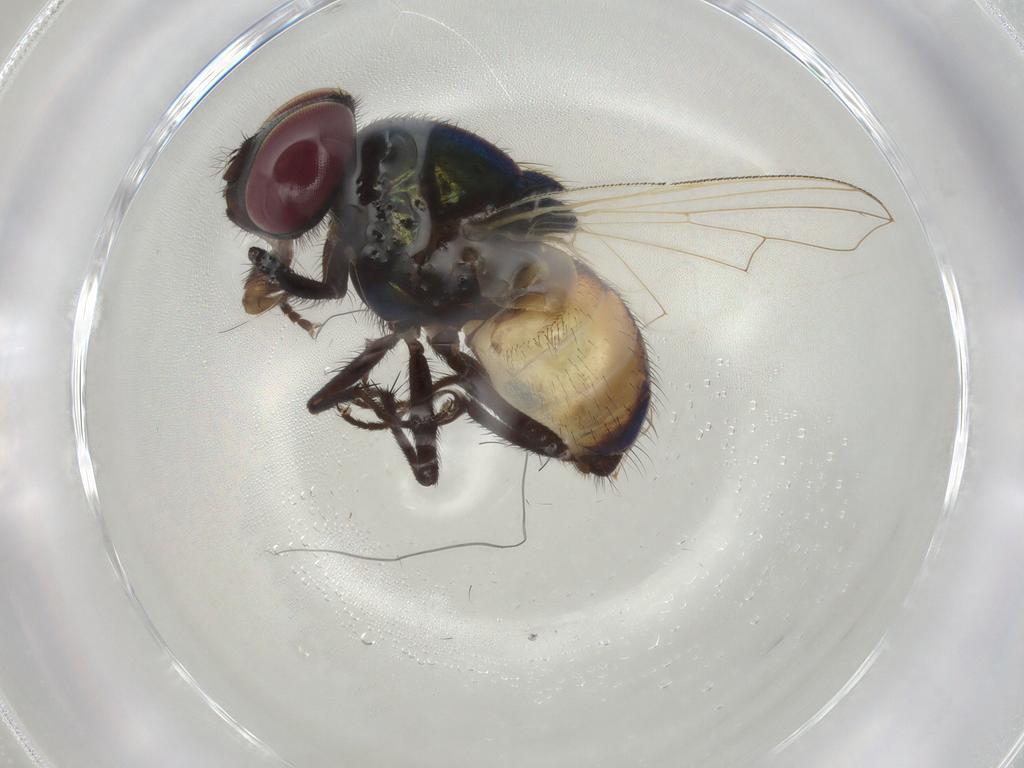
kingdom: Animalia
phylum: Arthropoda
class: Insecta
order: Diptera
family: Muscidae
